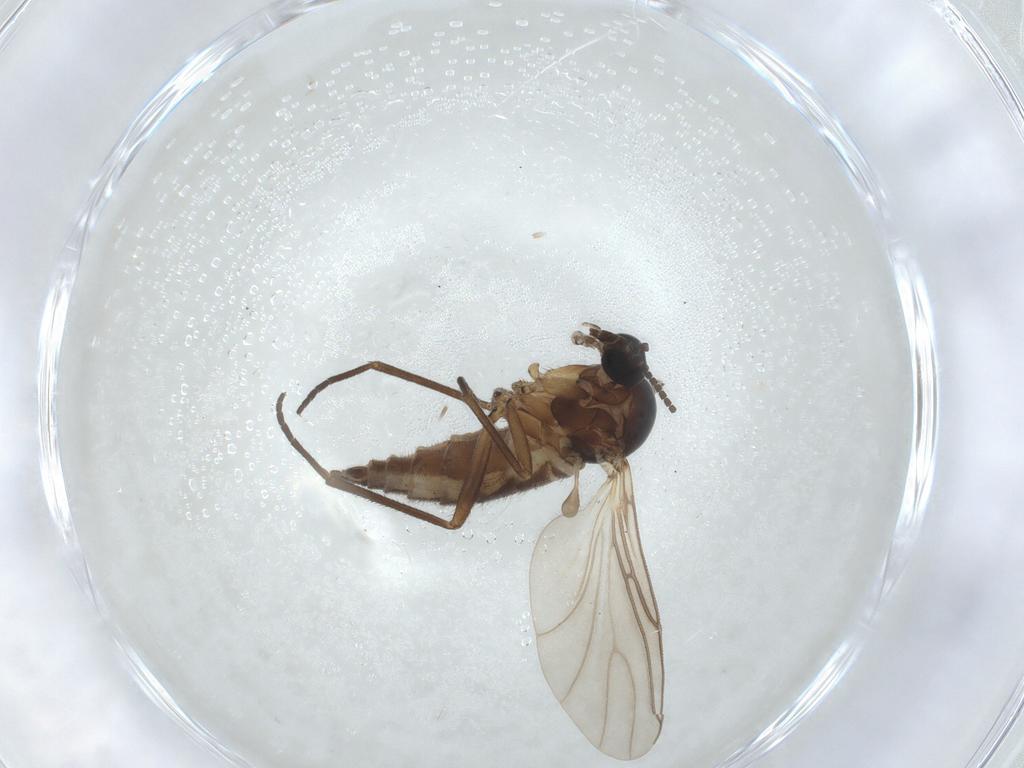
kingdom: Animalia
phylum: Arthropoda
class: Insecta
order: Diptera
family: Sciaridae
